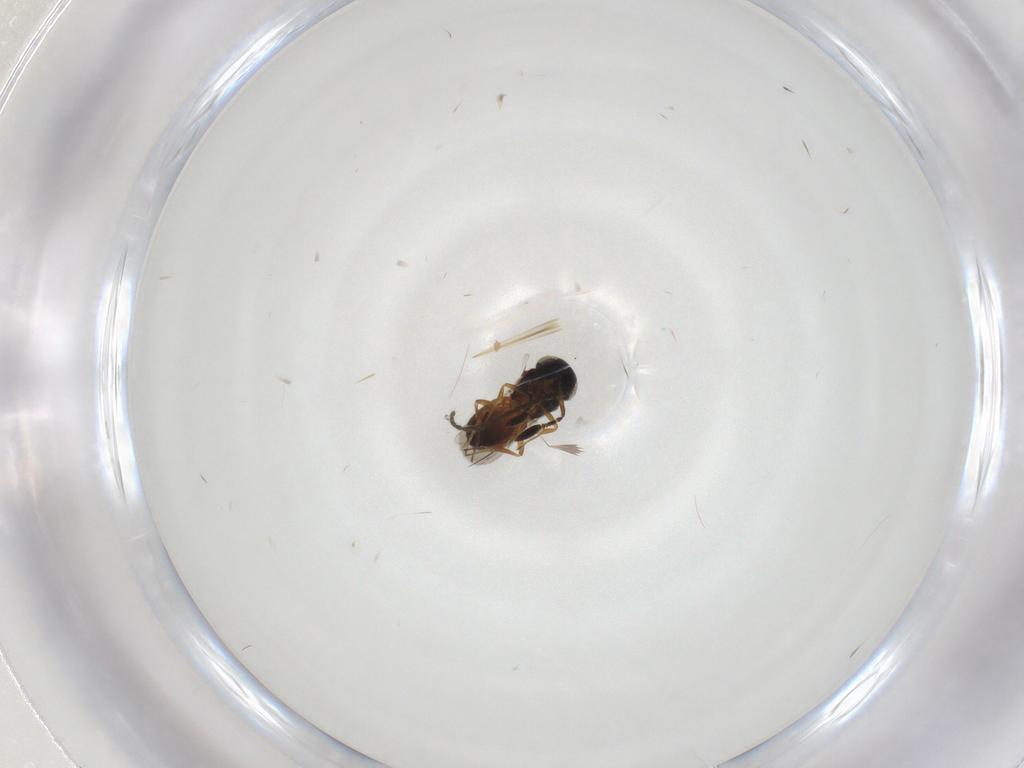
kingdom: Animalia
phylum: Arthropoda
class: Insecta
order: Hymenoptera
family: Scelionidae
